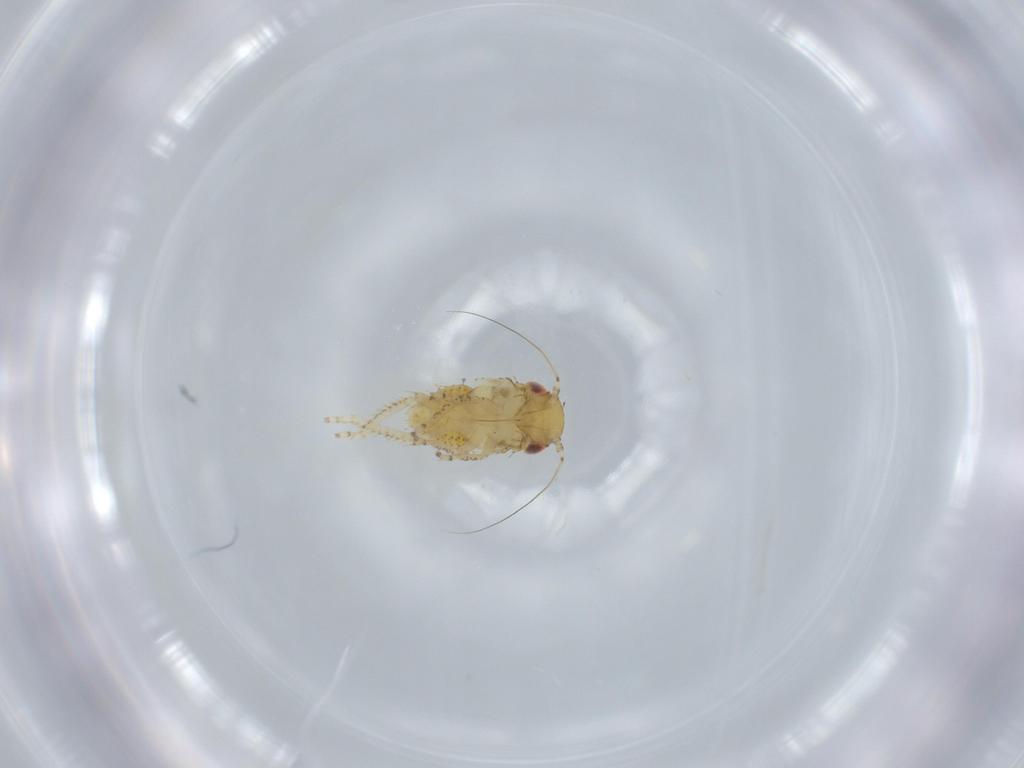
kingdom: Animalia
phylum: Arthropoda
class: Insecta
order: Hemiptera
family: Cicadellidae
